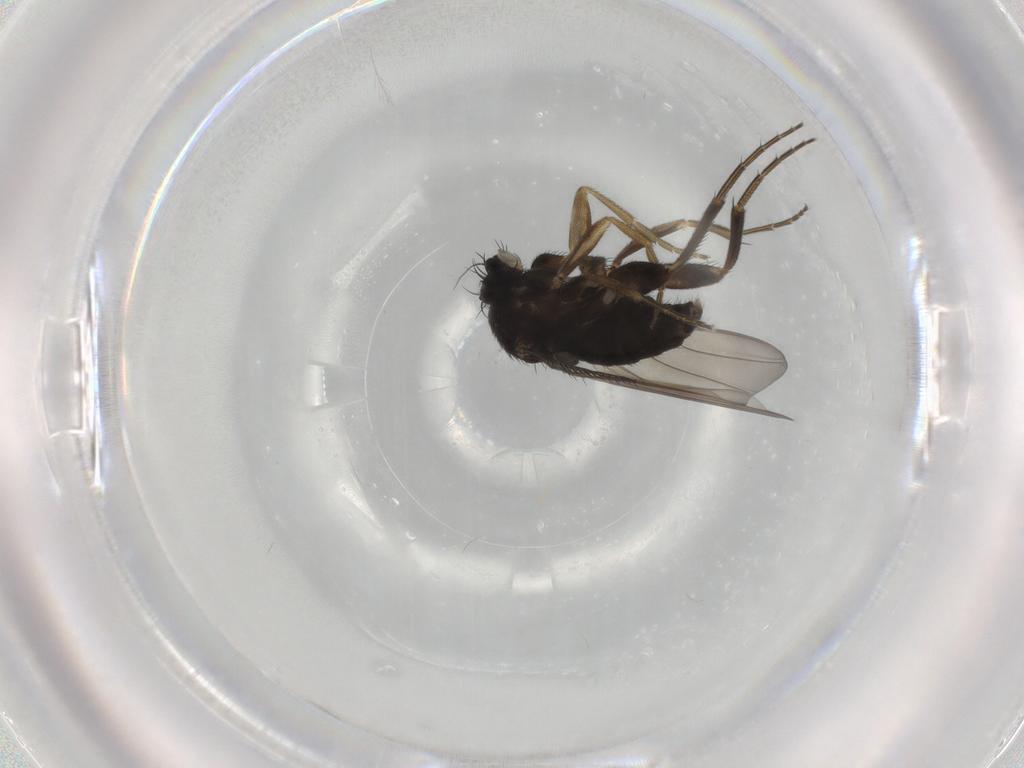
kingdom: Animalia
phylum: Arthropoda
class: Insecta
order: Diptera
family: Phoridae
